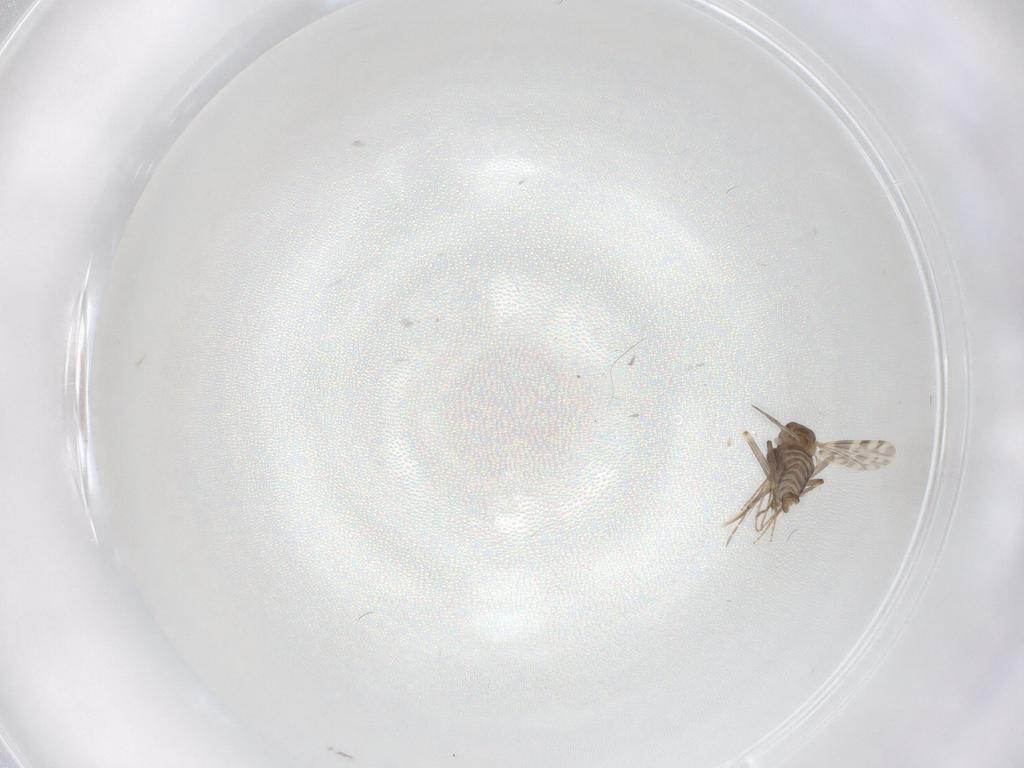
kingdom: Animalia
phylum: Arthropoda
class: Insecta
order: Diptera
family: Ceratopogonidae
